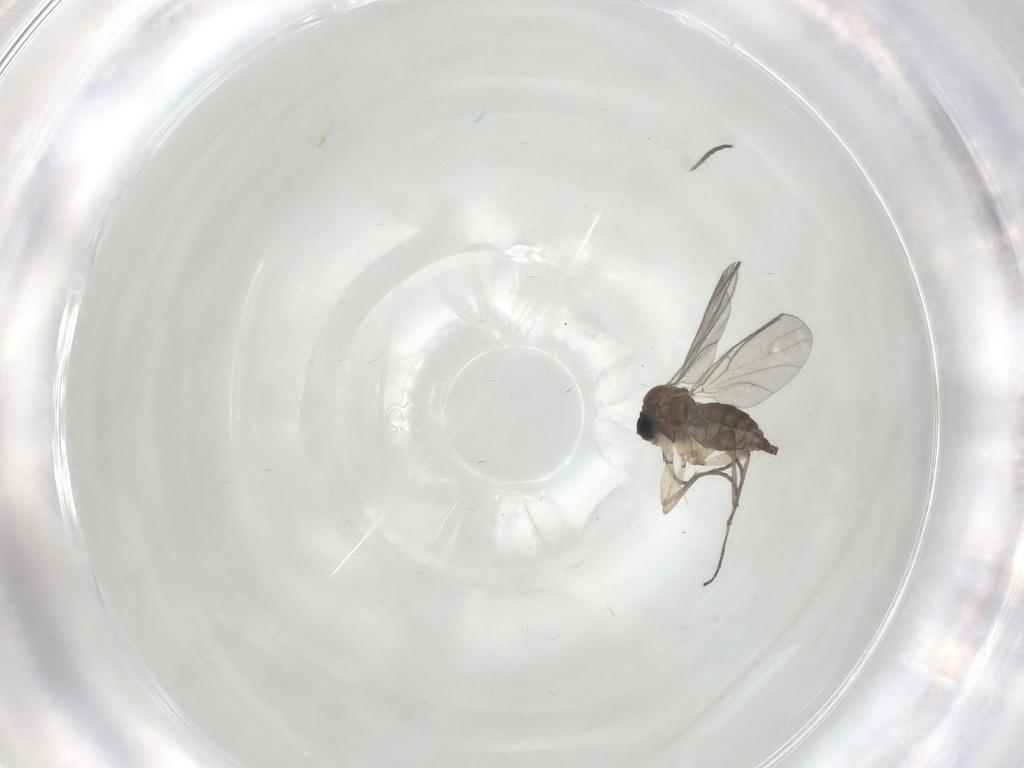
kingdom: Animalia
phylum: Arthropoda
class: Insecta
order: Diptera
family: Sciaridae
